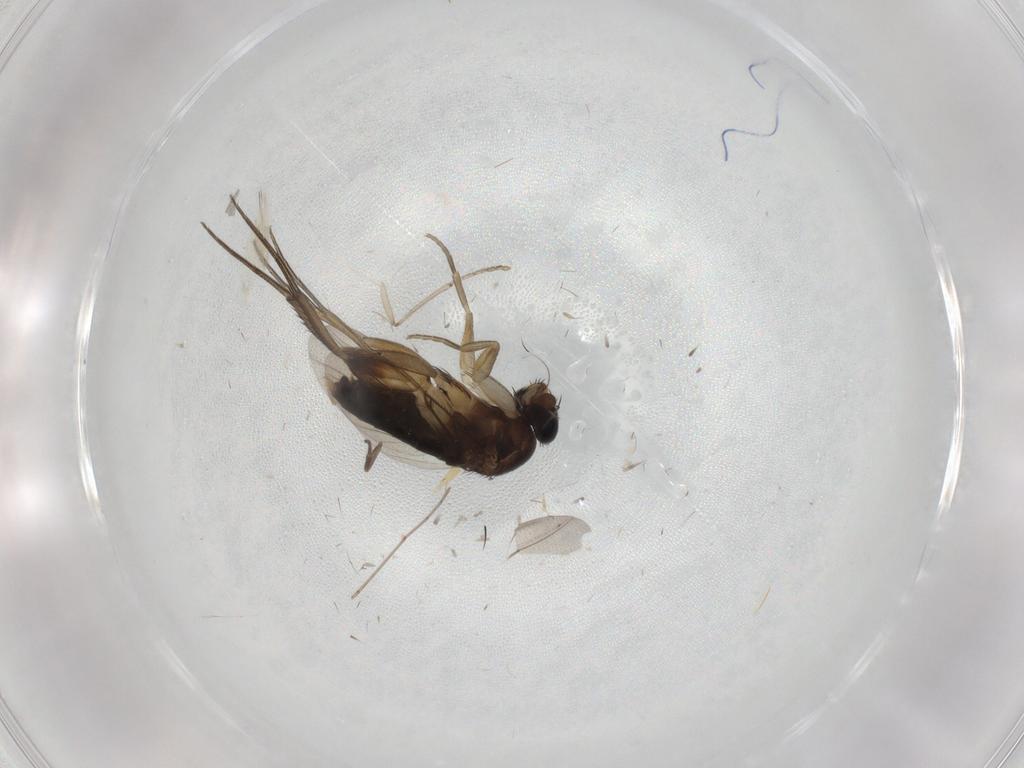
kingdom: Animalia
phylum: Arthropoda
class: Insecta
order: Diptera
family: Phoridae
